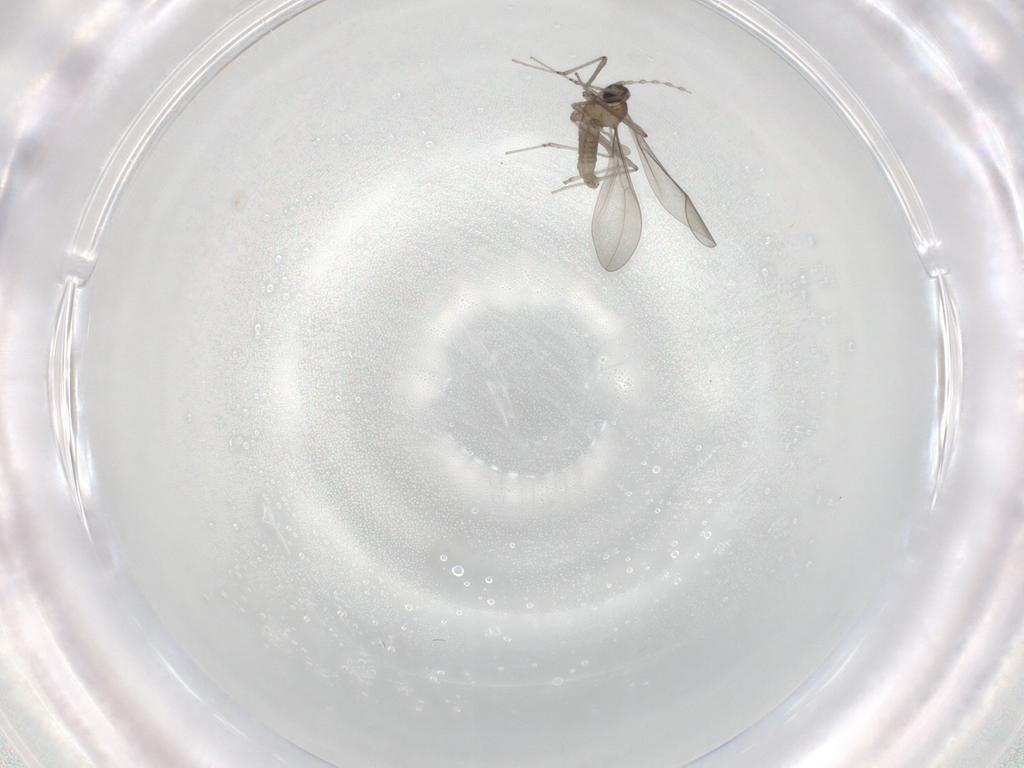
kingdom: Animalia
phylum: Arthropoda
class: Insecta
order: Diptera
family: Cecidomyiidae
